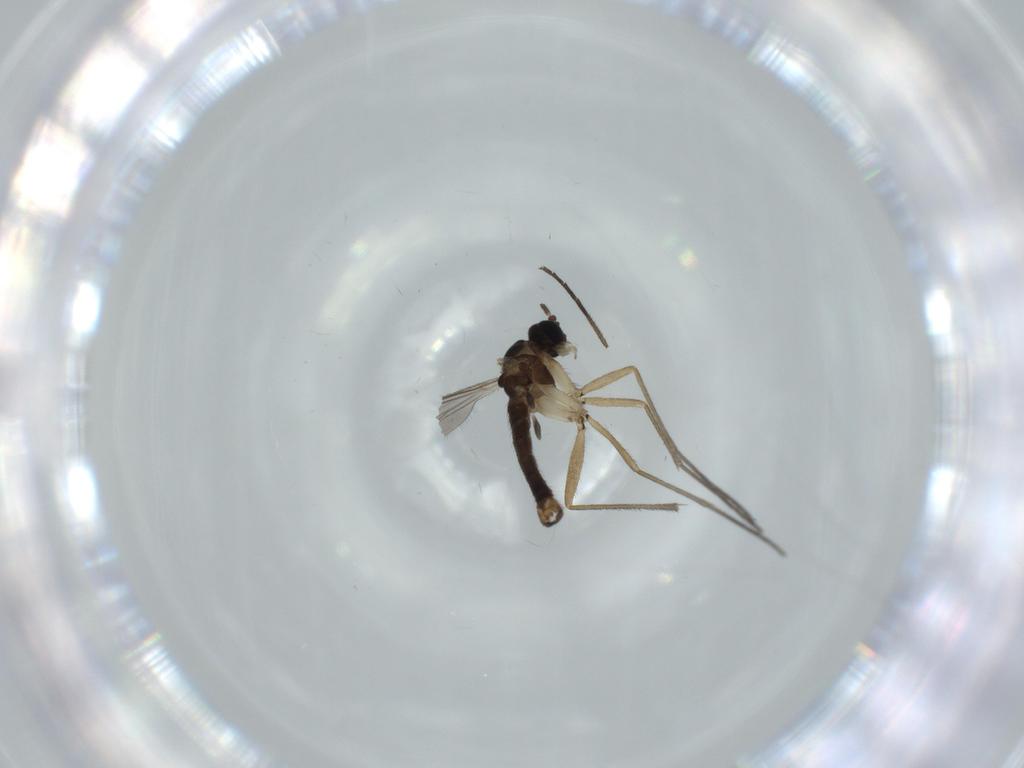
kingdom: Animalia
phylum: Arthropoda
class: Insecta
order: Diptera
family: Sciaridae
